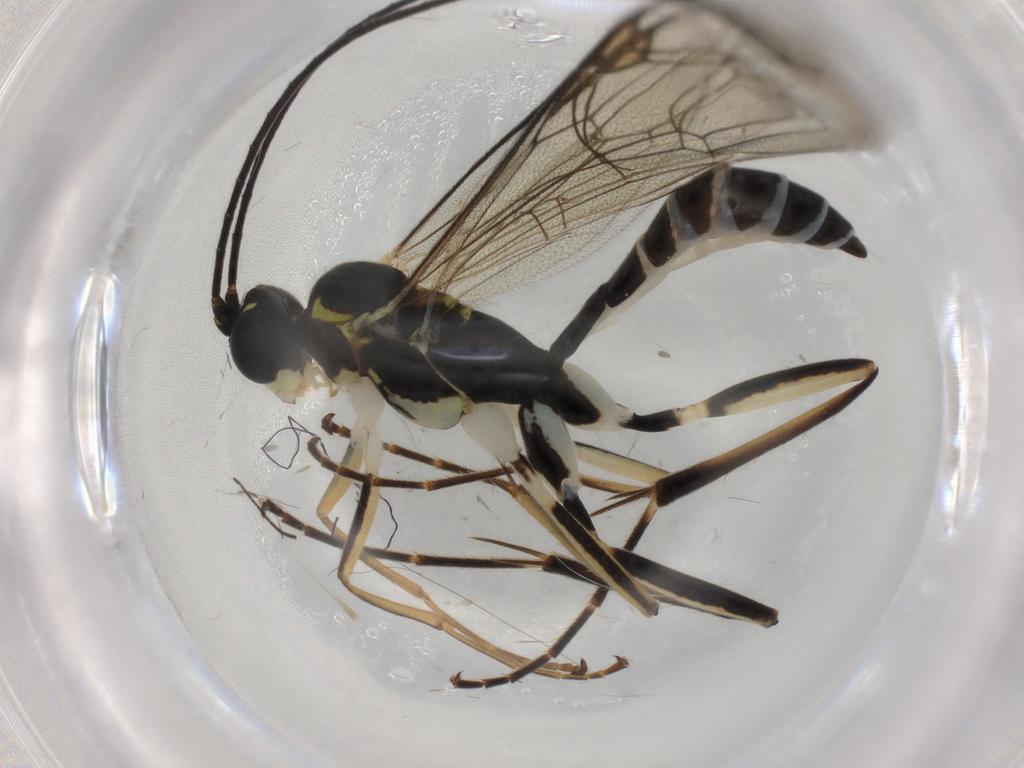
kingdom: Animalia
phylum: Arthropoda
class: Insecta
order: Hymenoptera
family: Ichneumonidae
